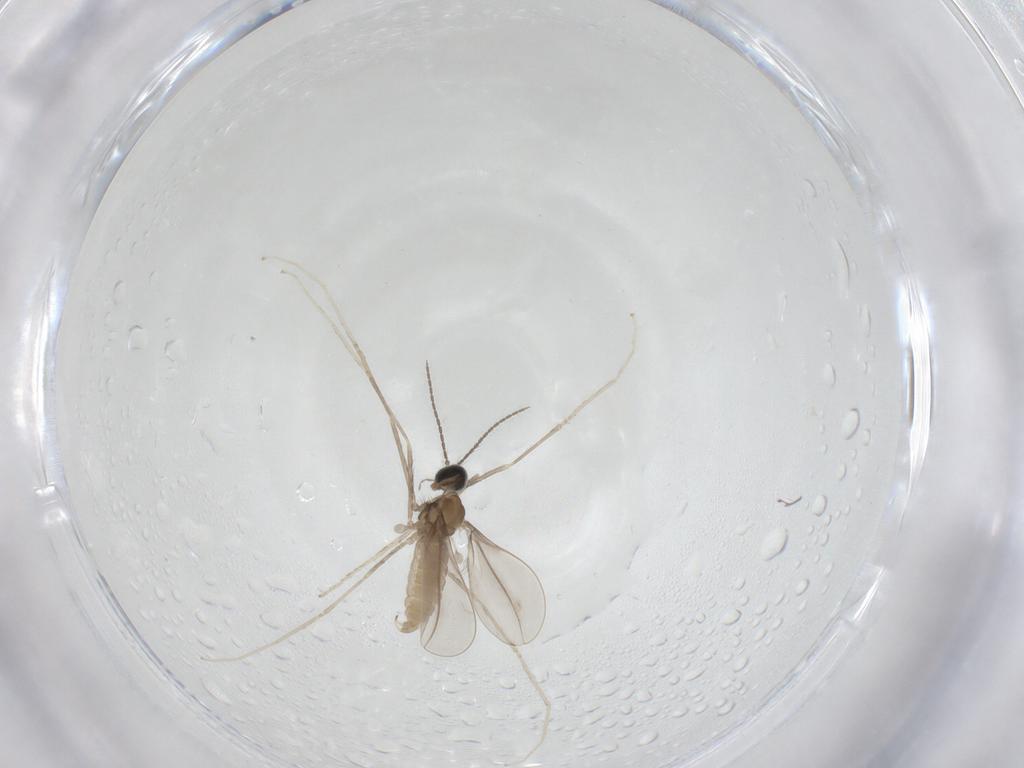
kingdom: Animalia
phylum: Arthropoda
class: Insecta
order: Diptera
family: Cecidomyiidae
